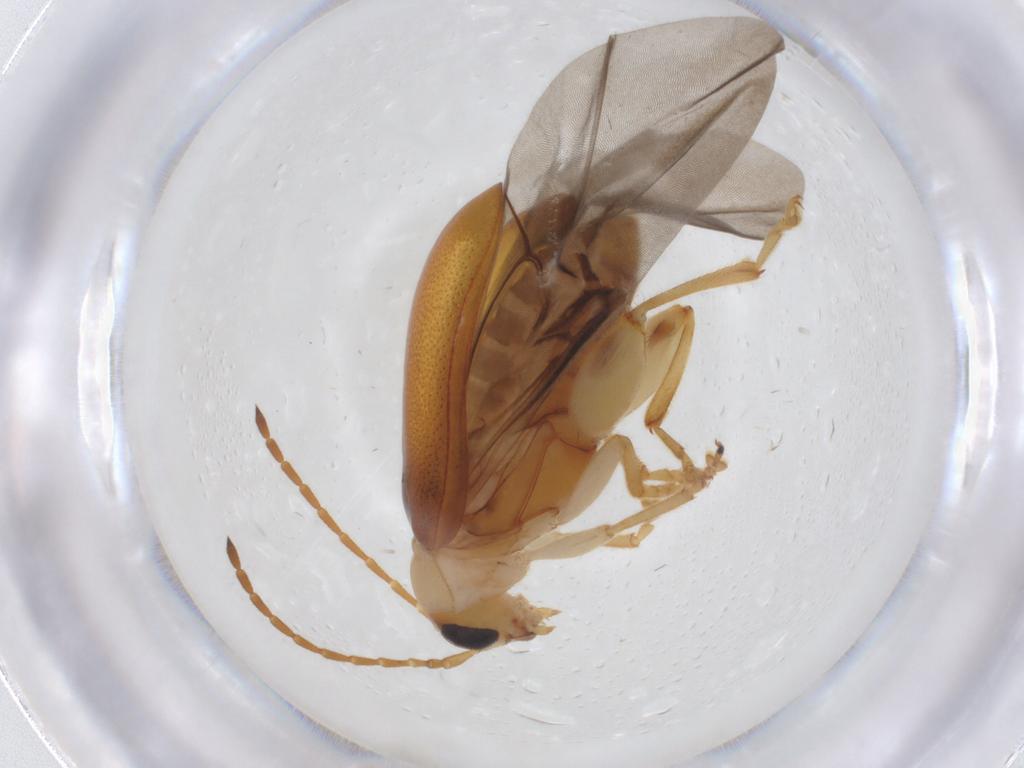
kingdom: Animalia
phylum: Arthropoda
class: Insecta
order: Coleoptera
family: Chrysomelidae
